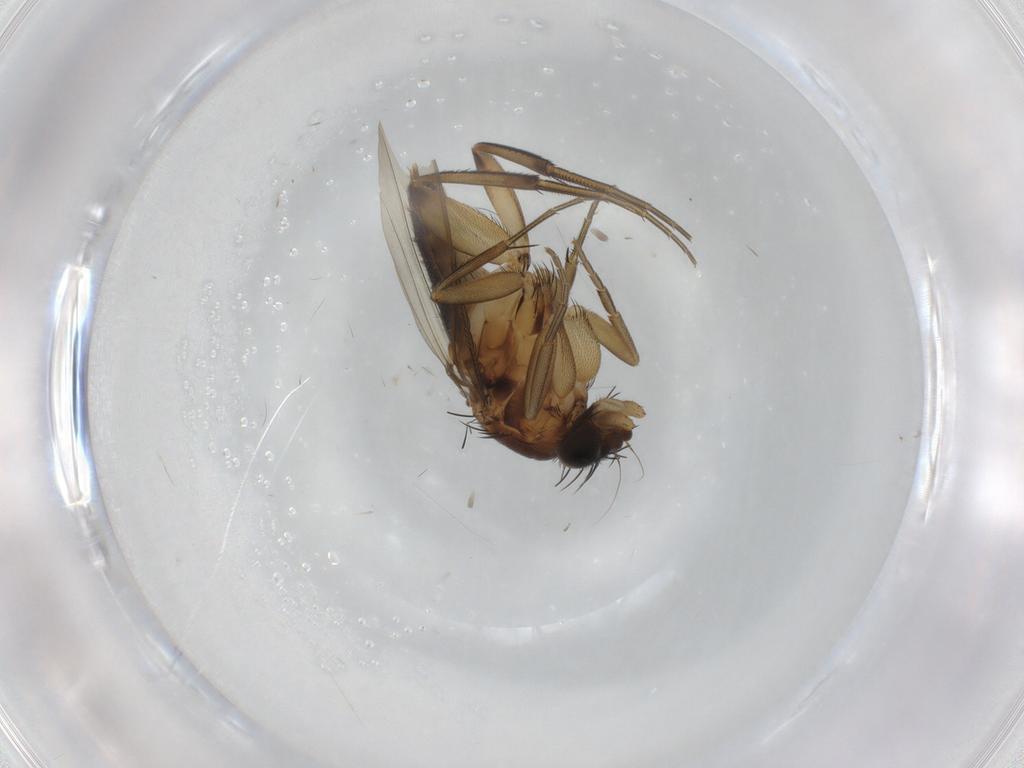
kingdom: Animalia
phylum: Arthropoda
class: Insecta
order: Diptera
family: Phoridae
